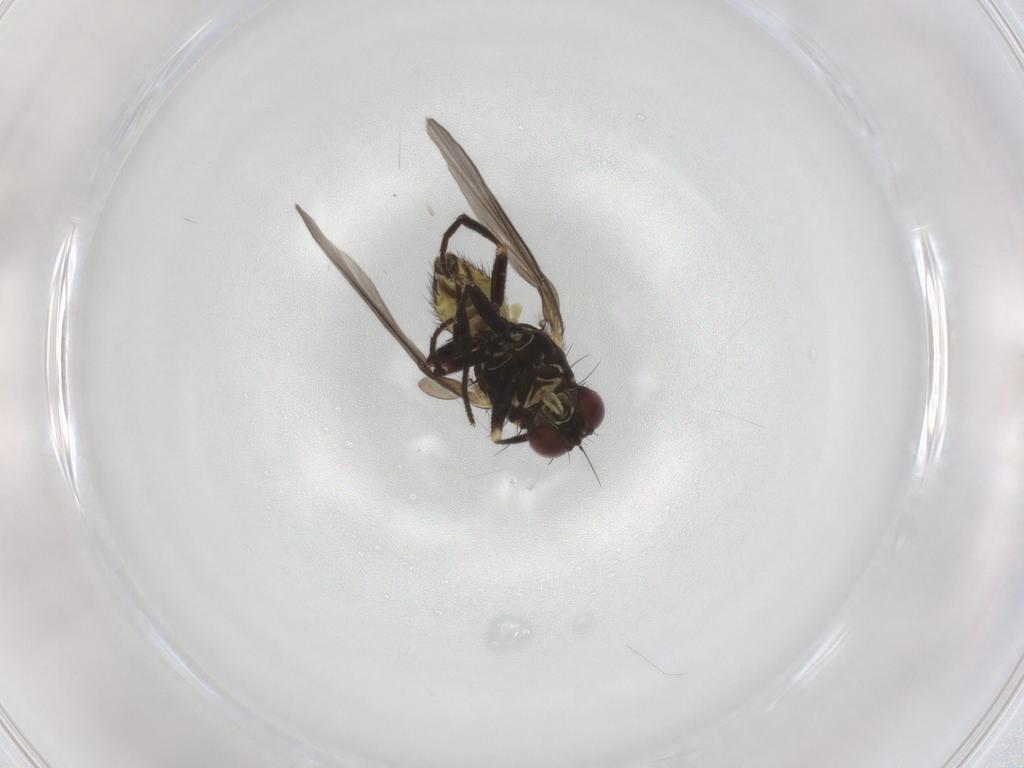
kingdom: Animalia
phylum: Arthropoda
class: Insecta
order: Diptera
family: Agromyzidae
